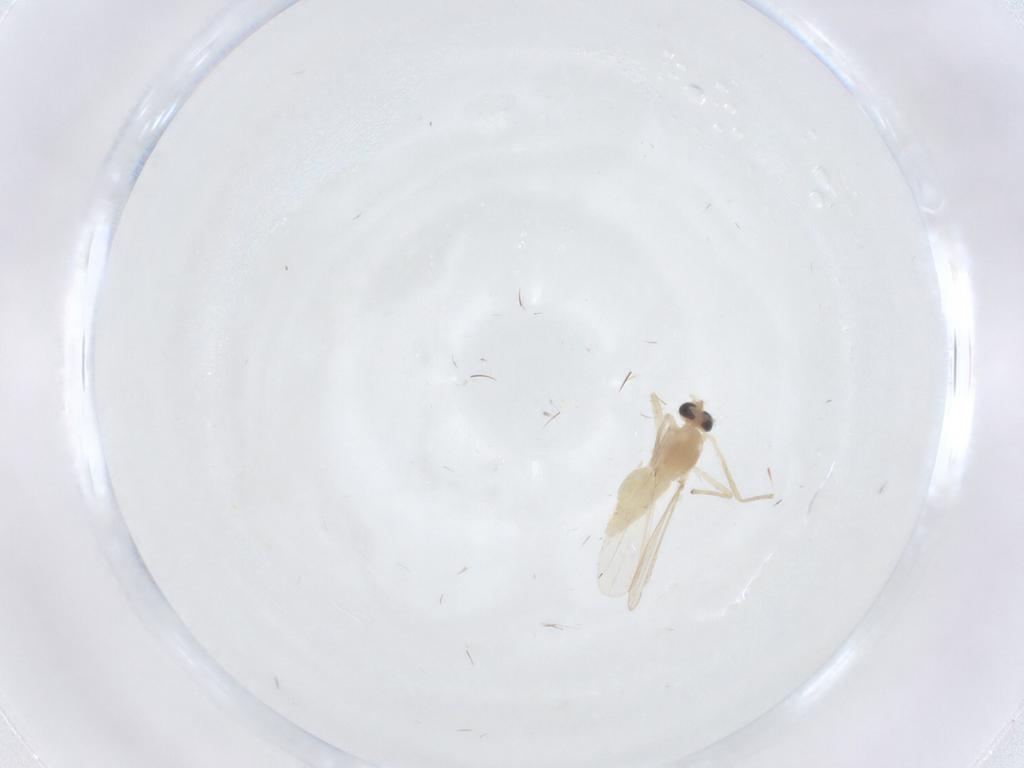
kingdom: Animalia
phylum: Arthropoda
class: Insecta
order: Diptera
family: Chironomidae
